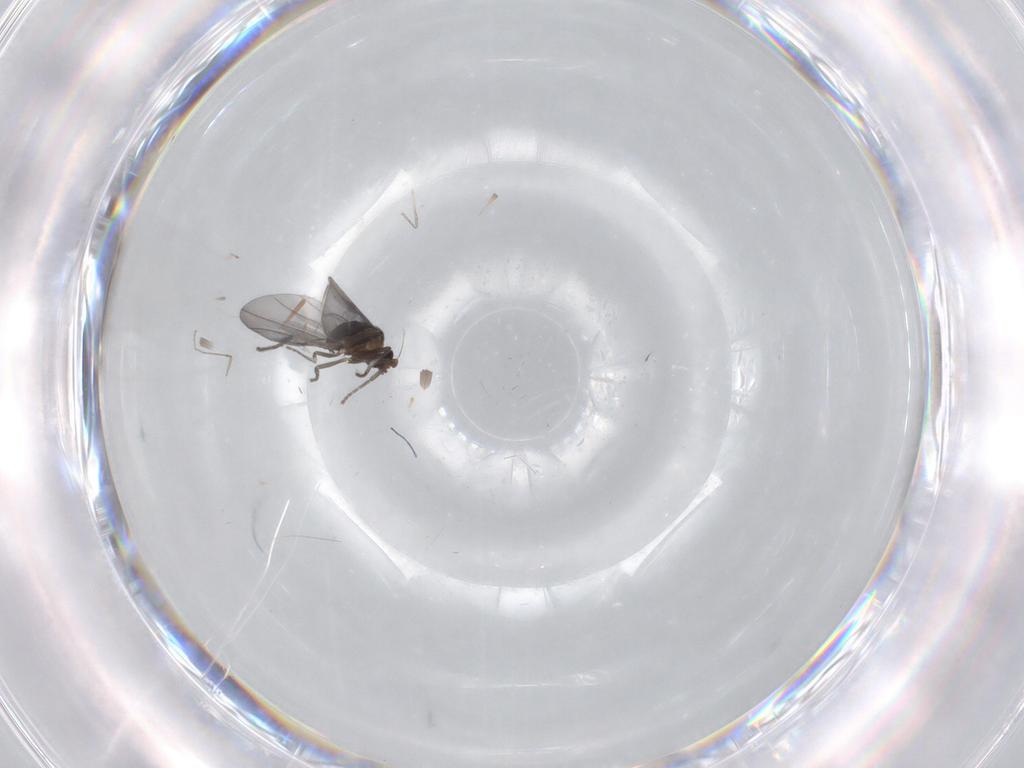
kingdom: Animalia
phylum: Arthropoda
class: Insecta
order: Diptera
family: Phoridae
